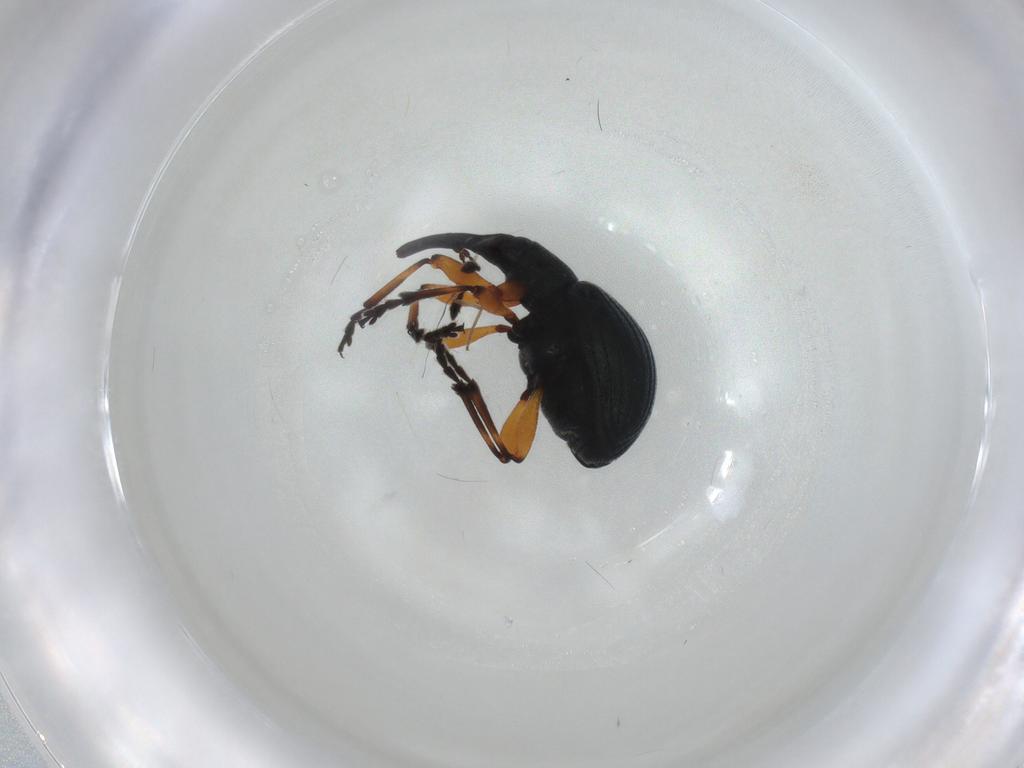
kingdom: Animalia
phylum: Arthropoda
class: Insecta
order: Coleoptera
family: Brentidae
